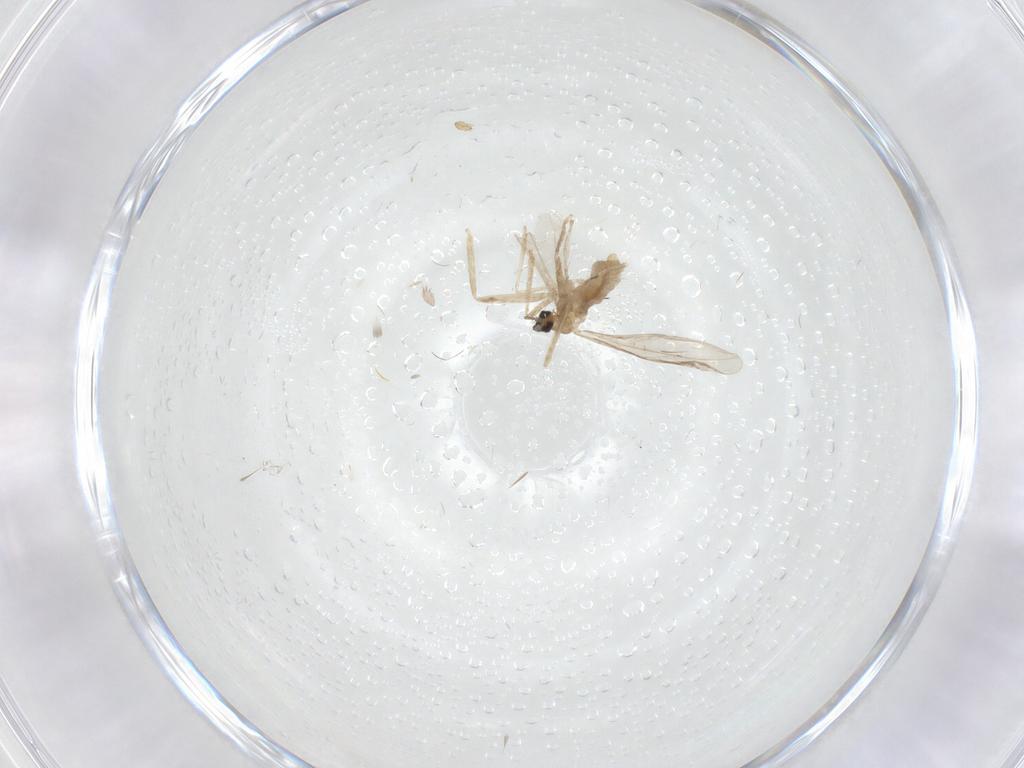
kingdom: Animalia
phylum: Arthropoda
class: Insecta
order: Diptera
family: Cecidomyiidae
